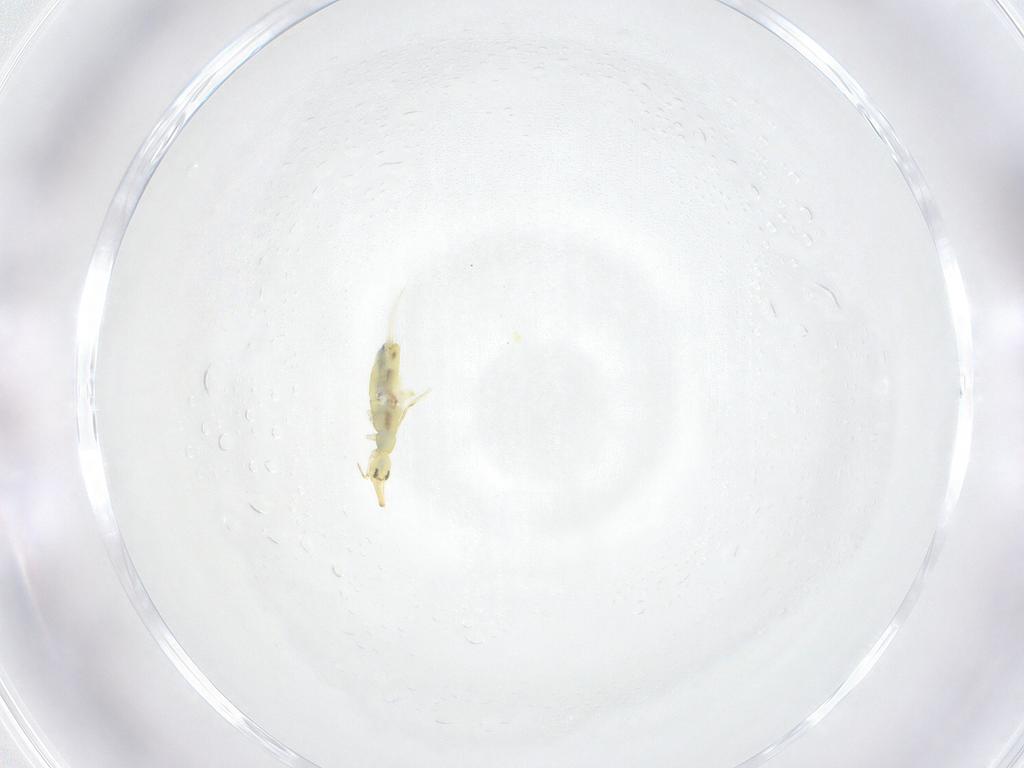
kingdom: Animalia
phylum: Arthropoda
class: Collembola
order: Entomobryomorpha
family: Paronellidae
